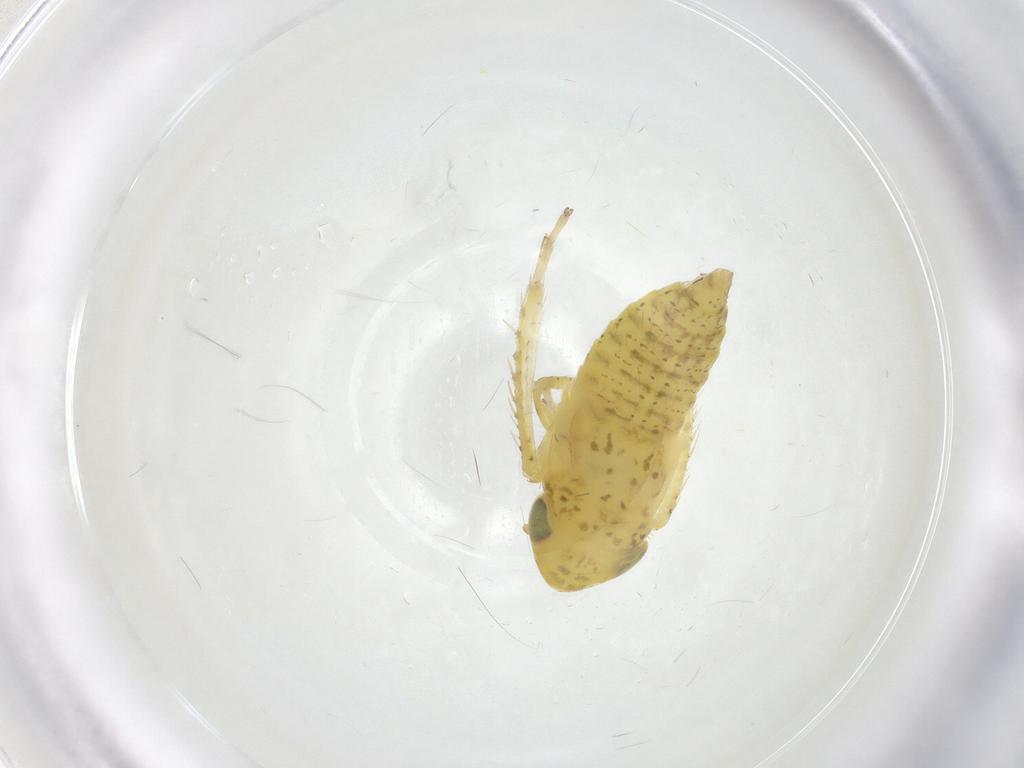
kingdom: Animalia
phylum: Arthropoda
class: Insecta
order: Hemiptera
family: Cicadellidae
